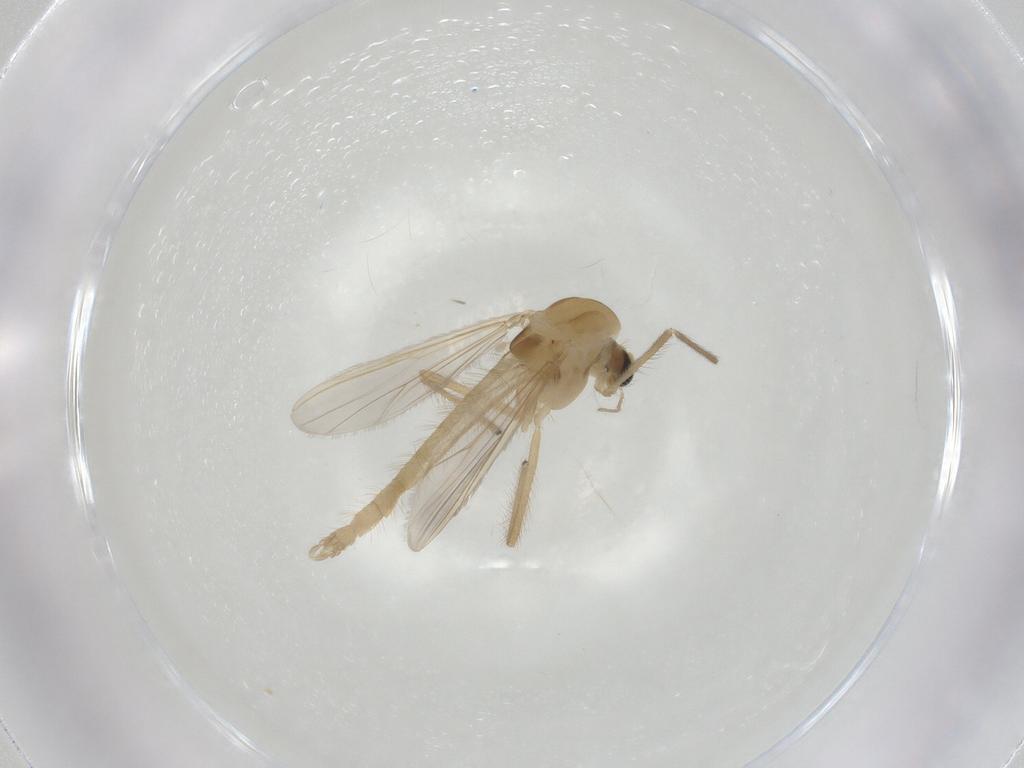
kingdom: Animalia
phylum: Arthropoda
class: Insecta
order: Diptera
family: Chironomidae
